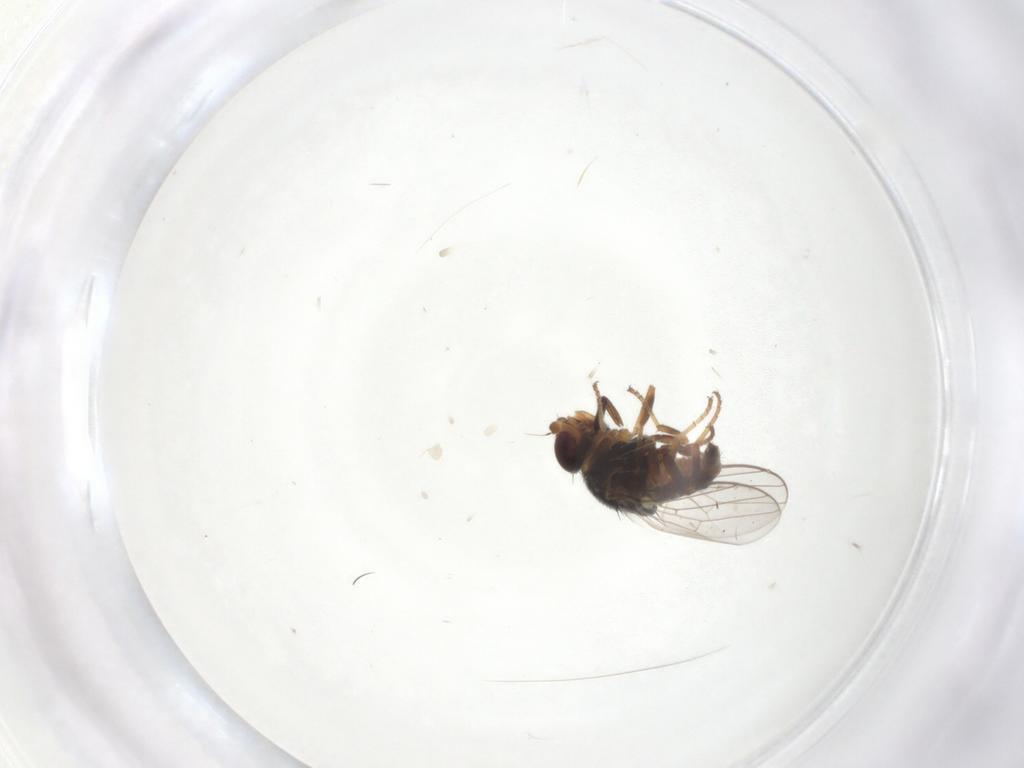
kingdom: Animalia
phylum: Arthropoda
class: Insecta
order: Diptera
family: Chloropidae
